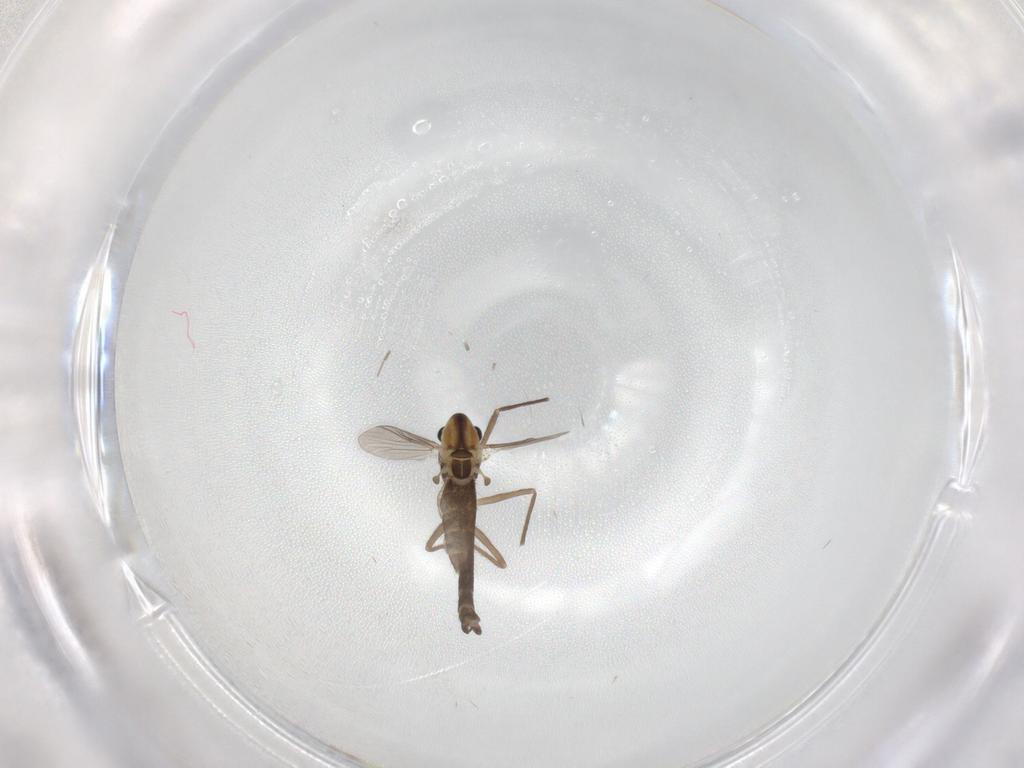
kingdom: Animalia
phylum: Arthropoda
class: Insecta
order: Diptera
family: Chironomidae
